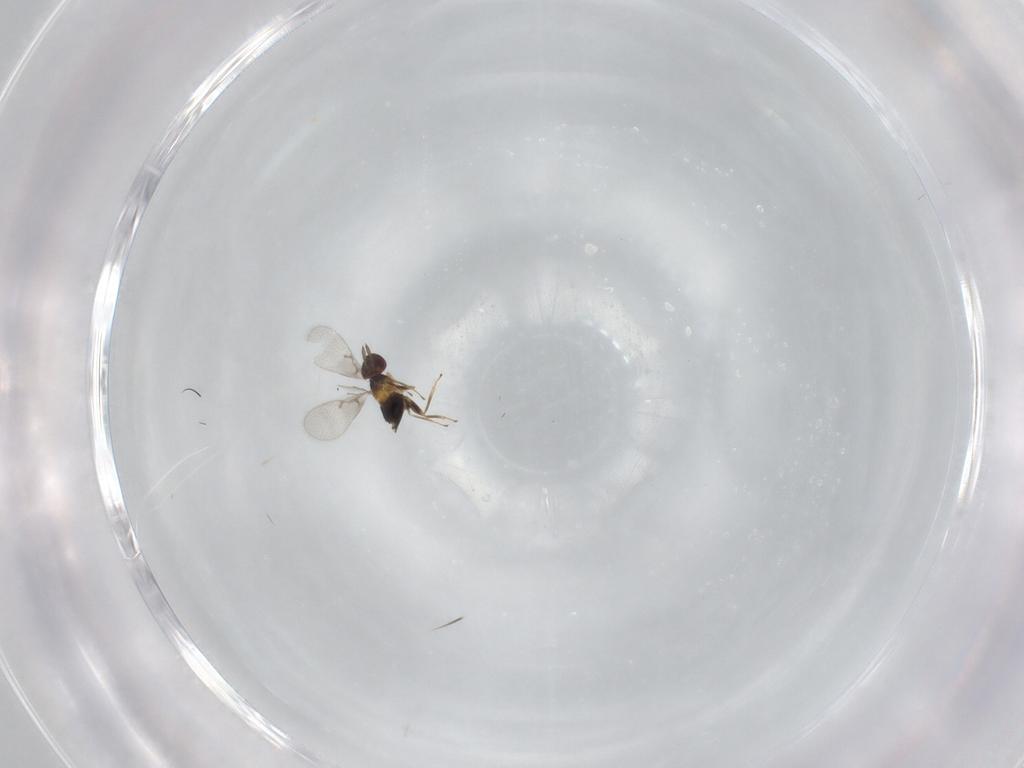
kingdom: Animalia
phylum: Arthropoda
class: Insecta
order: Hymenoptera
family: Trichogrammatidae
